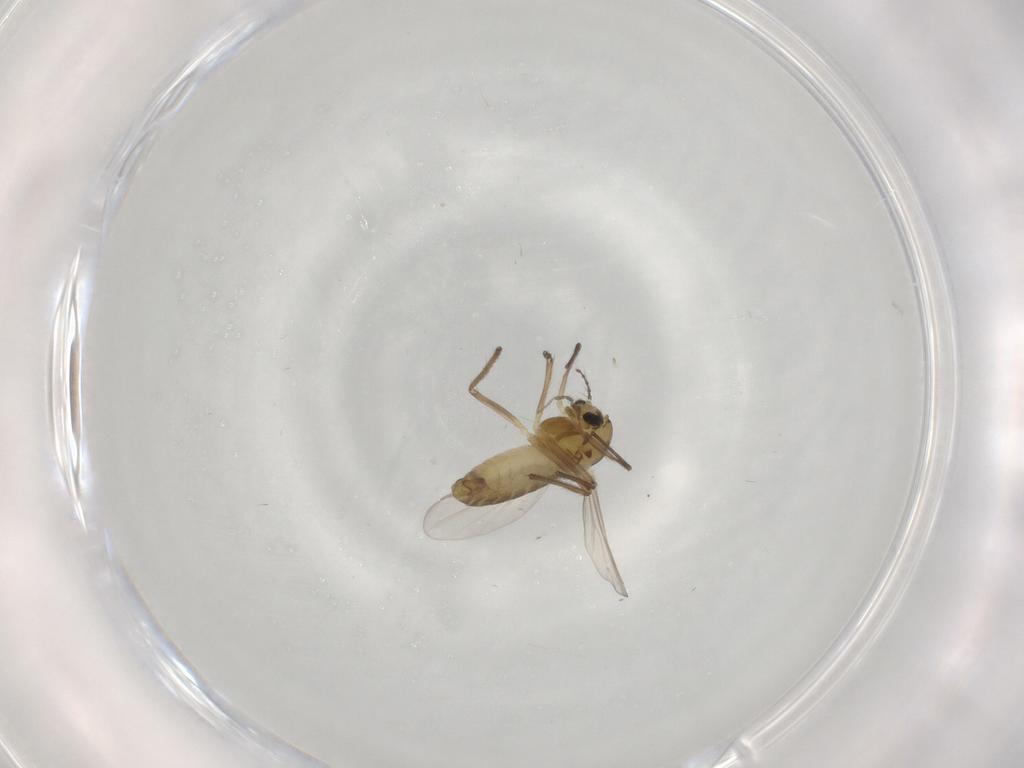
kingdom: Animalia
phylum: Arthropoda
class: Insecta
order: Diptera
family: Chironomidae
